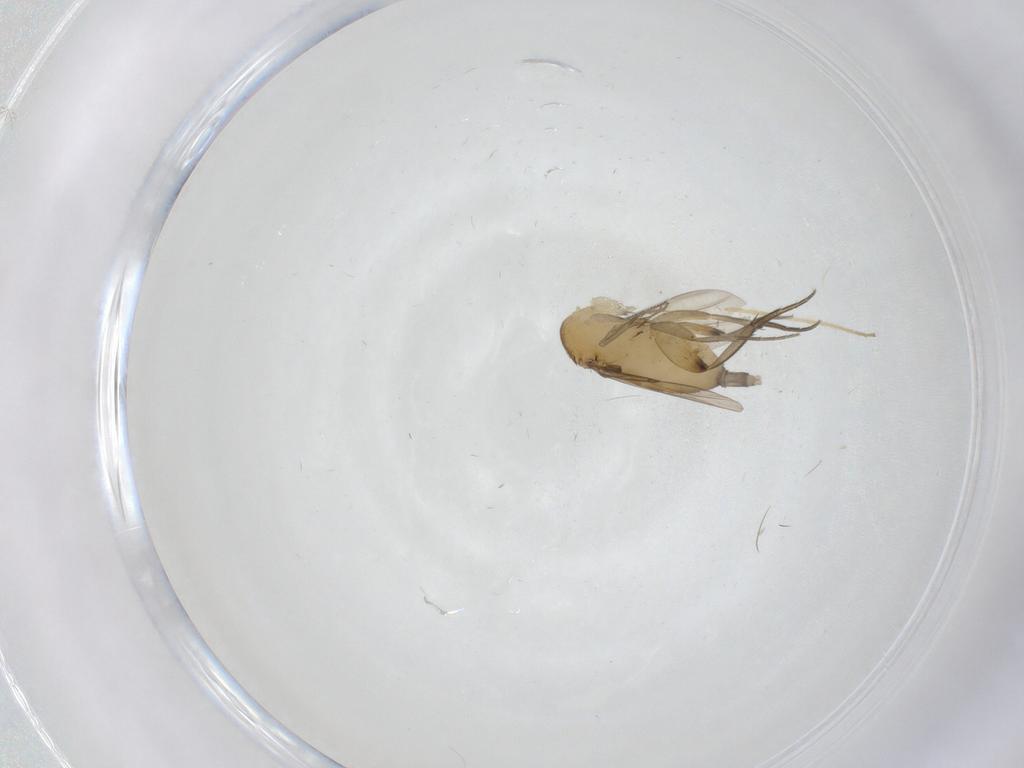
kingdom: Animalia
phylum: Arthropoda
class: Insecta
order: Diptera
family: Phoridae
